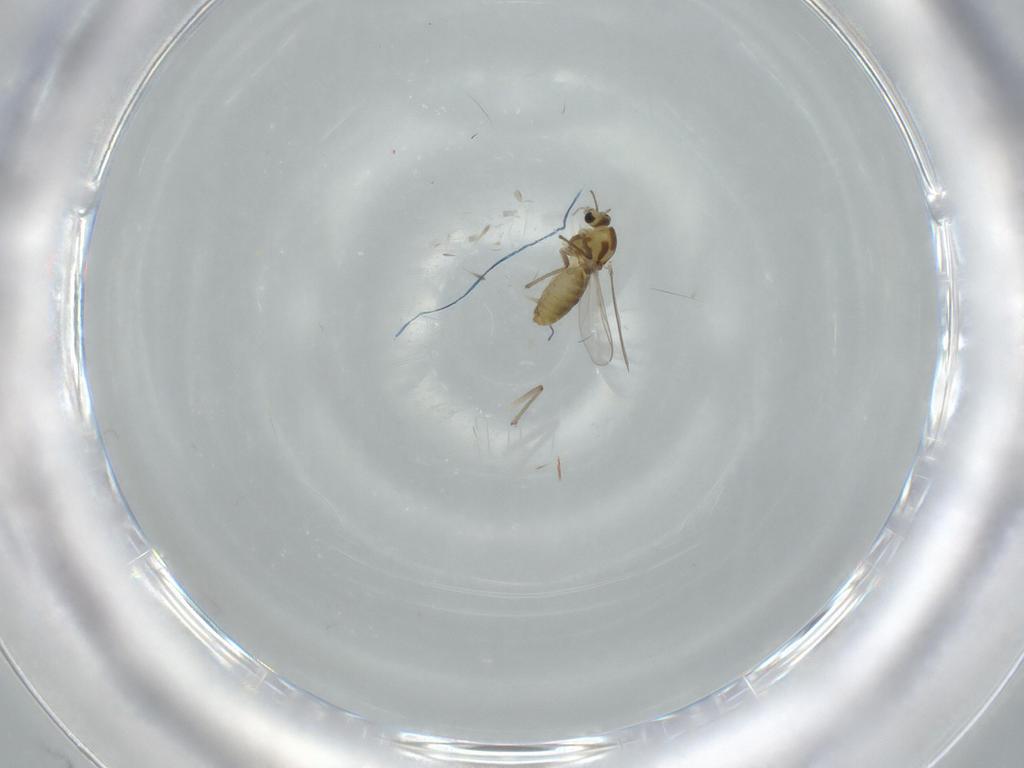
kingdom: Animalia
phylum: Arthropoda
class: Insecta
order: Diptera
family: Chironomidae
